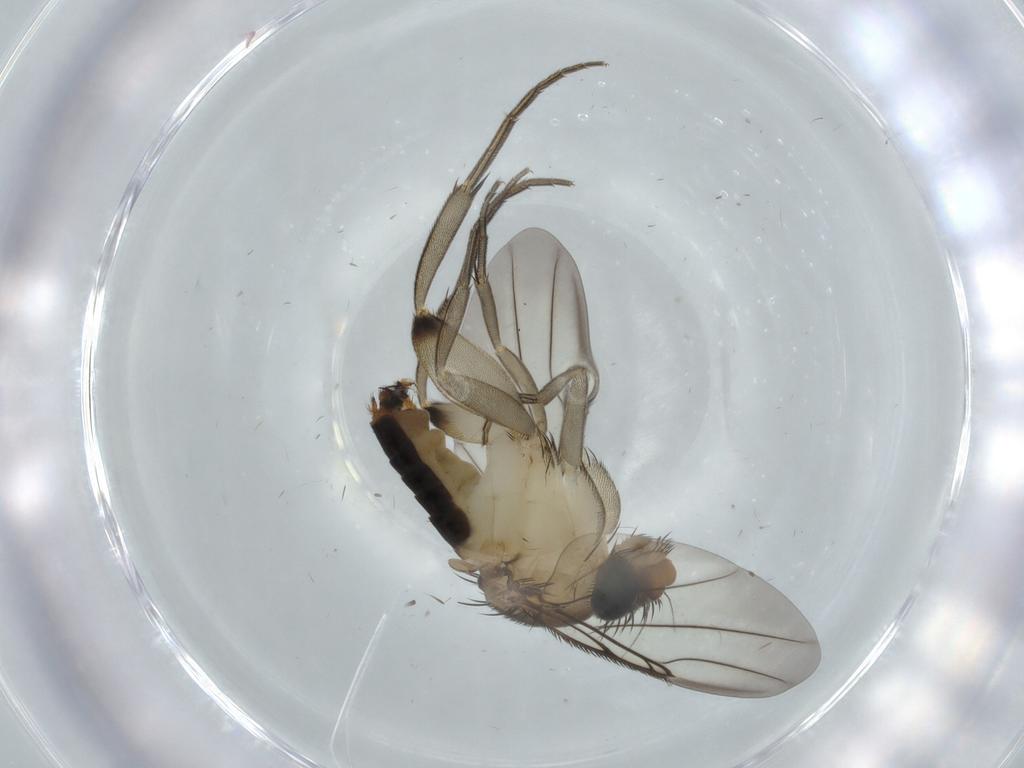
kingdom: Animalia
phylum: Arthropoda
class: Insecta
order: Diptera
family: Phoridae
